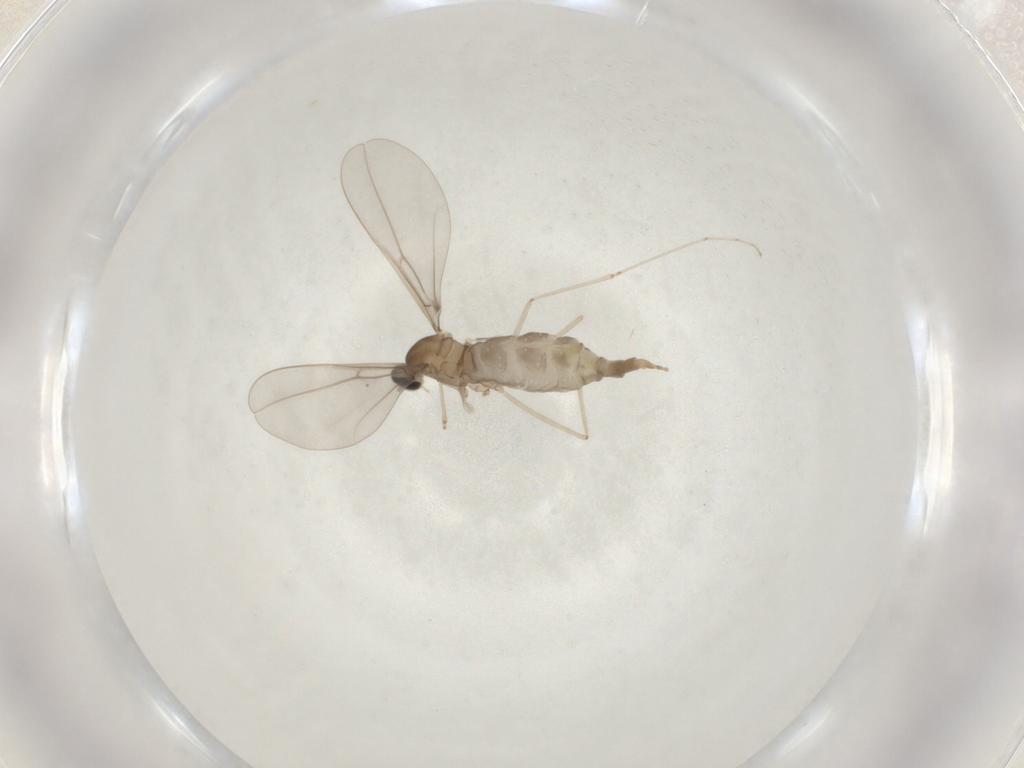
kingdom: Animalia
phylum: Arthropoda
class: Insecta
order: Diptera
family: Cecidomyiidae
